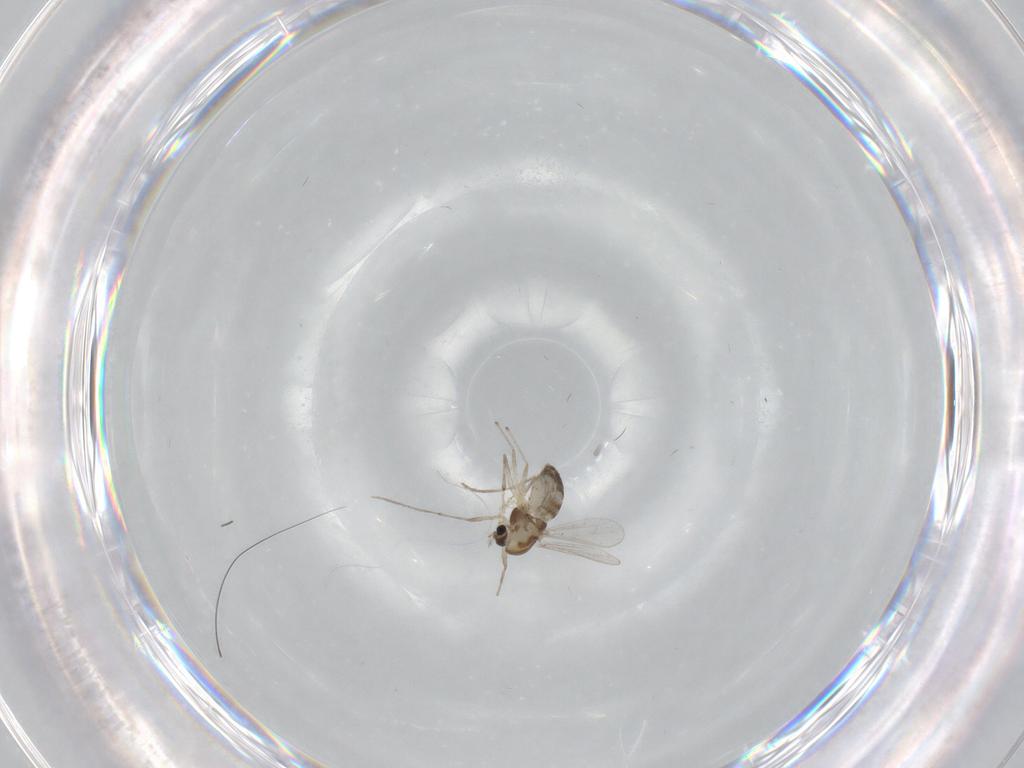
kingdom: Animalia
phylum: Arthropoda
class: Insecta
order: Diptera
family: Chironomidae
